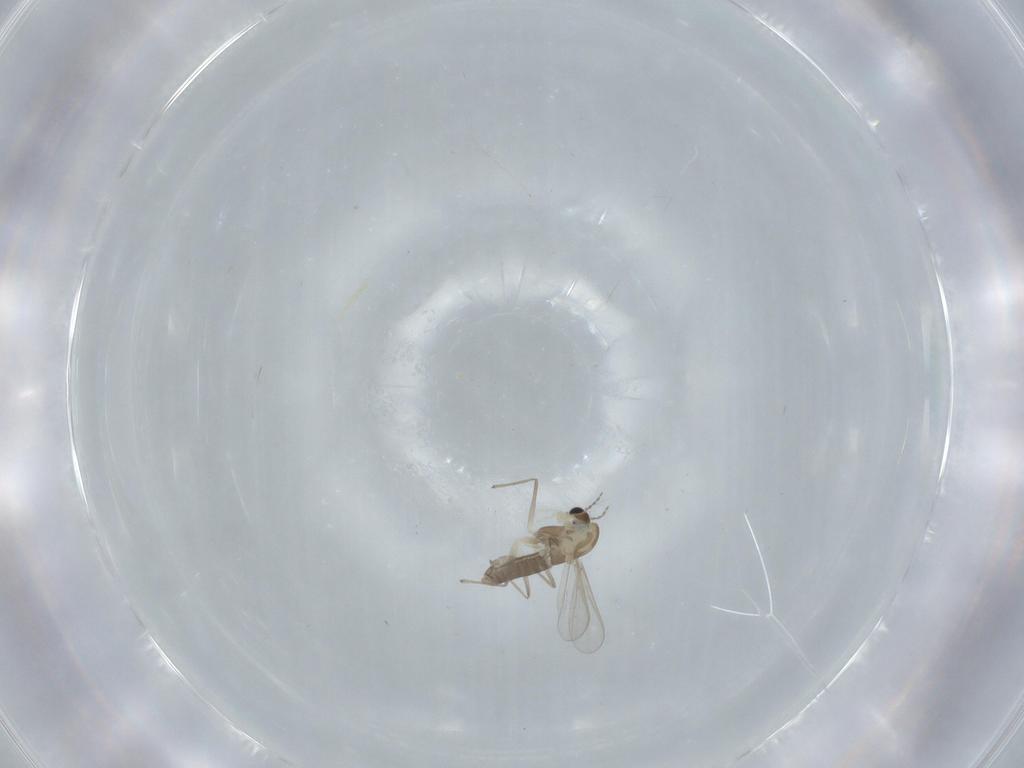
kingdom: Animalia
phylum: Arthropoda
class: Insecta
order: Diptera
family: Chironomidae
